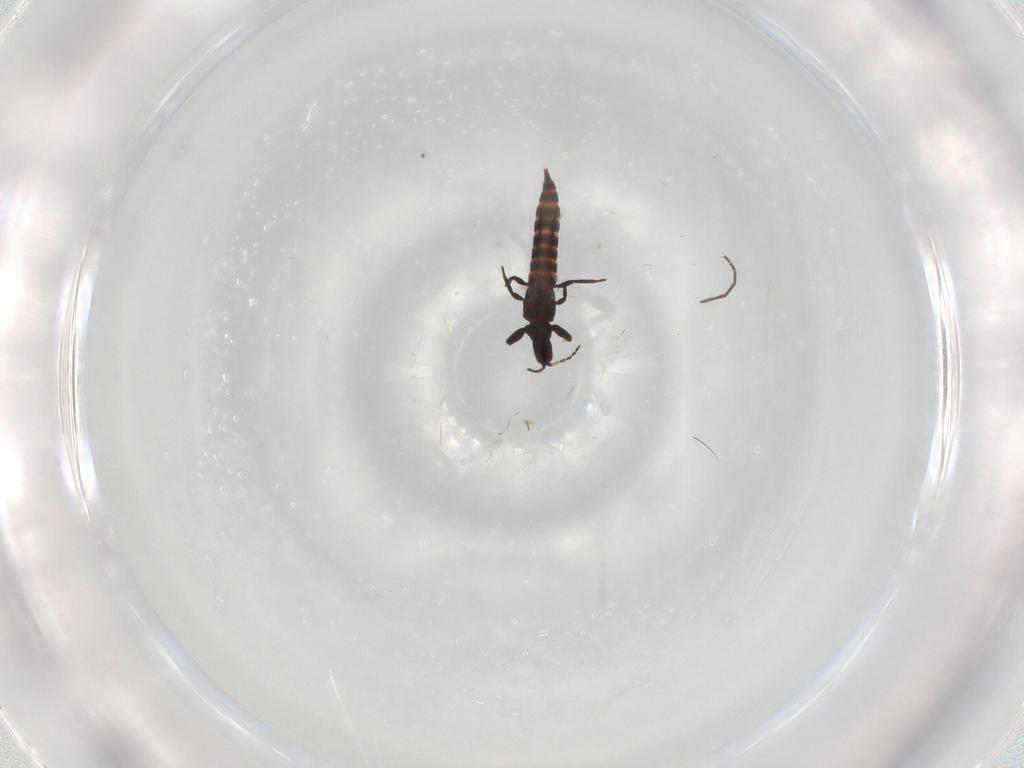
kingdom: Animalia
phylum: Arthropoda
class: Insecta
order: Thysanoptera
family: Phlaeothripidae
